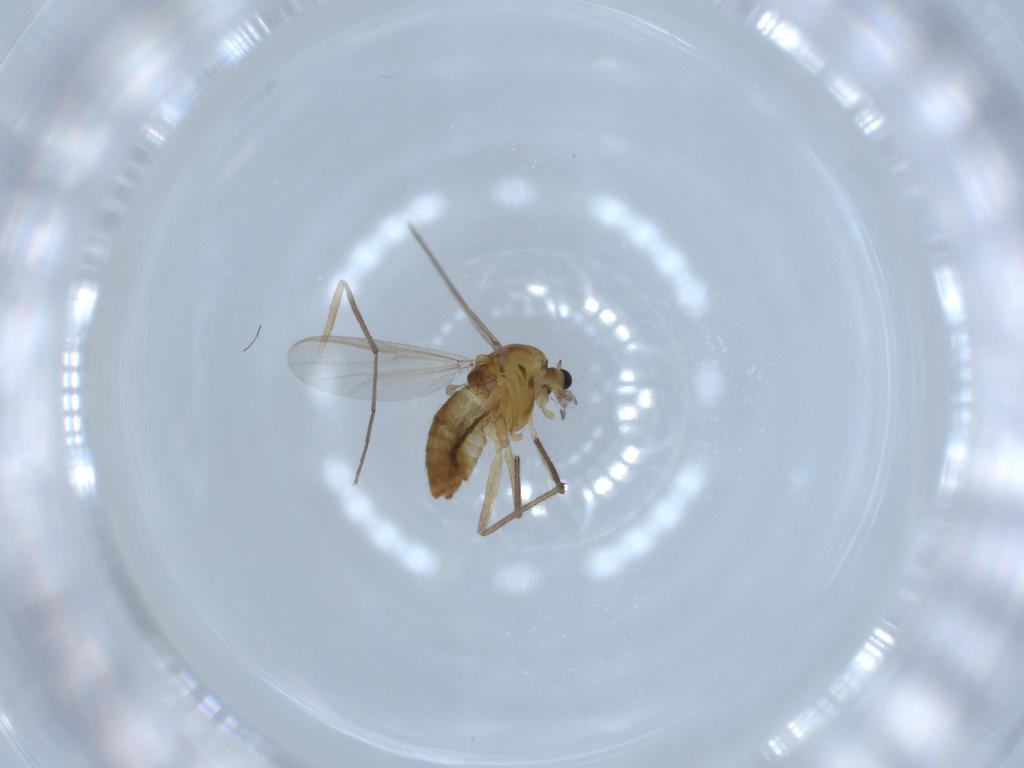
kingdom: Animalia
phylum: Arthropoda
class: Insecta
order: Diptera
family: Chironomidae
